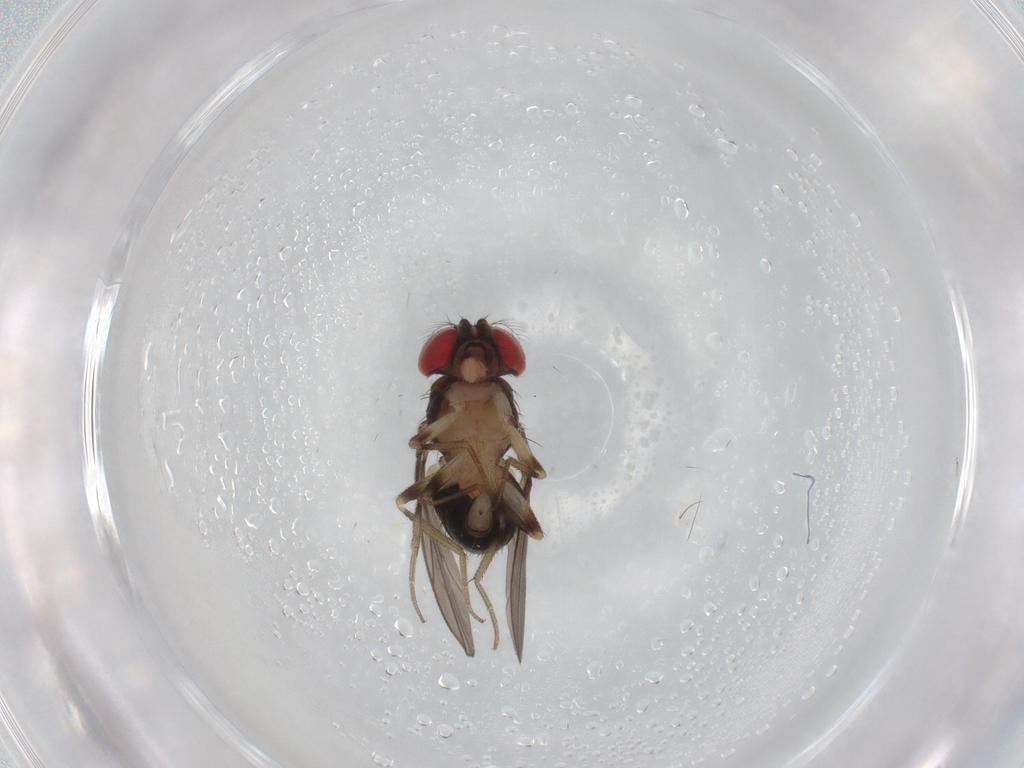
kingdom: Animalia
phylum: Arthropoda
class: Insecta
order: Diptera
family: Drosophilidae
